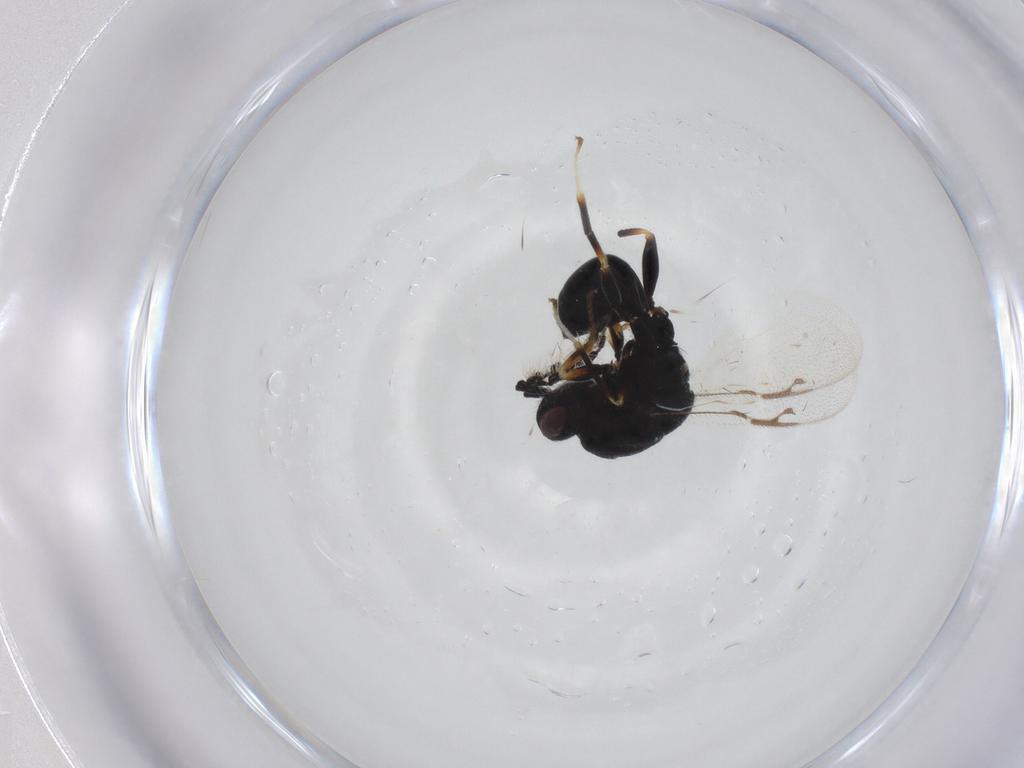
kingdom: Animalia
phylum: Arthropoda
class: Insecta
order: Hymenoptera
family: Eurytomidae
